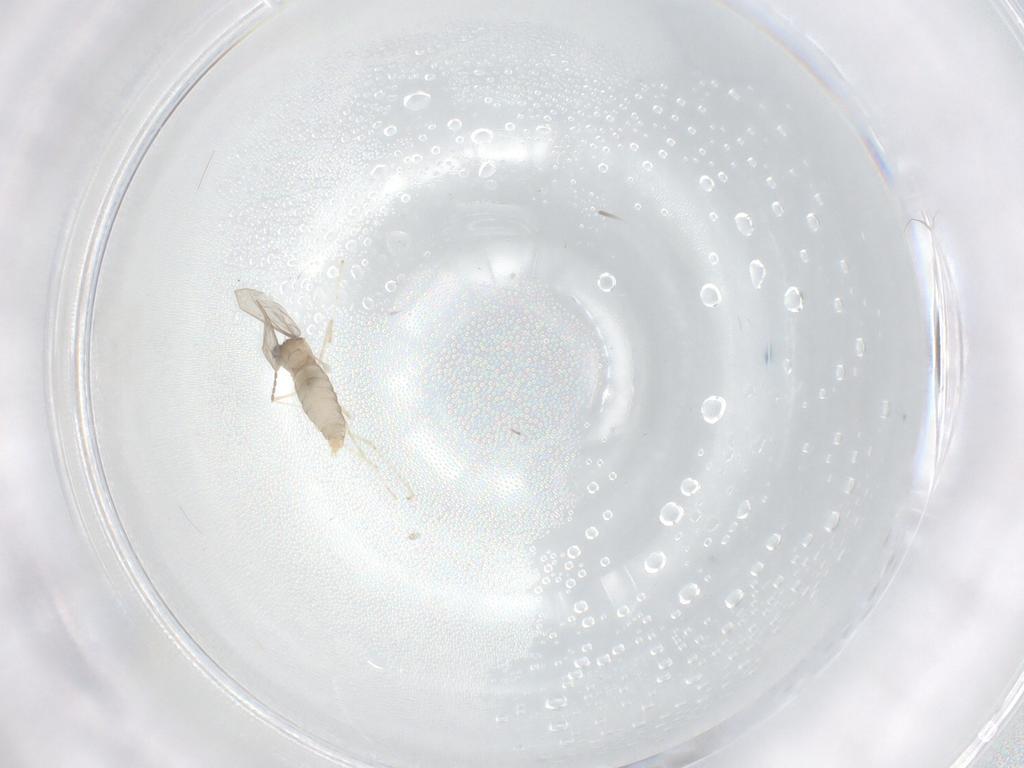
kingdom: Animalia
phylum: Arthropoda
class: Insecta
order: Diptera
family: Cecidomyiidae
